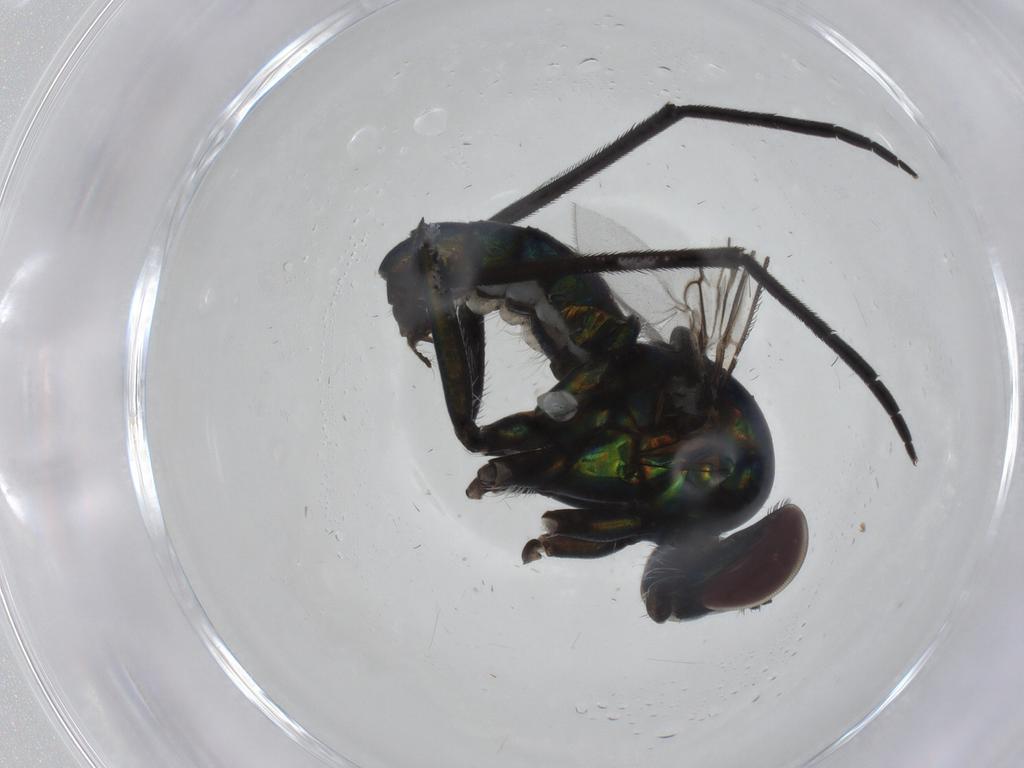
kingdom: Animalia
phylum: Arthropoda
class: Insecta
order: Diptera
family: Dolichopodidae
